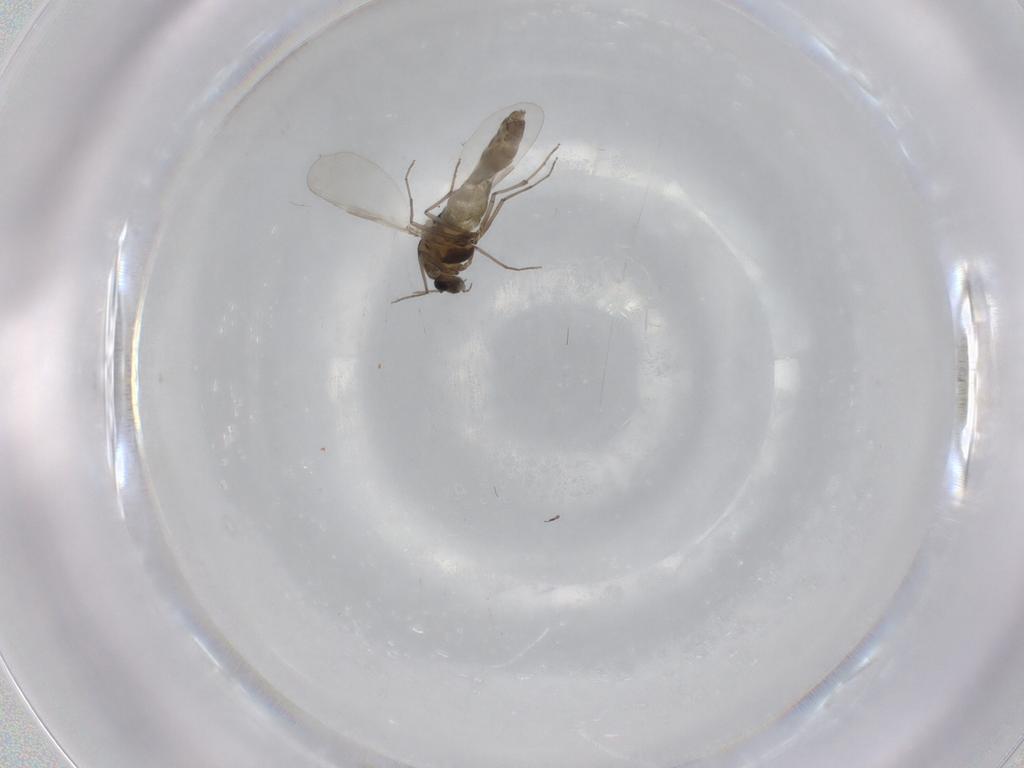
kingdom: Animalia
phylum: Arthropoda
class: Insecta
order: Diptera
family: Chironomidae
